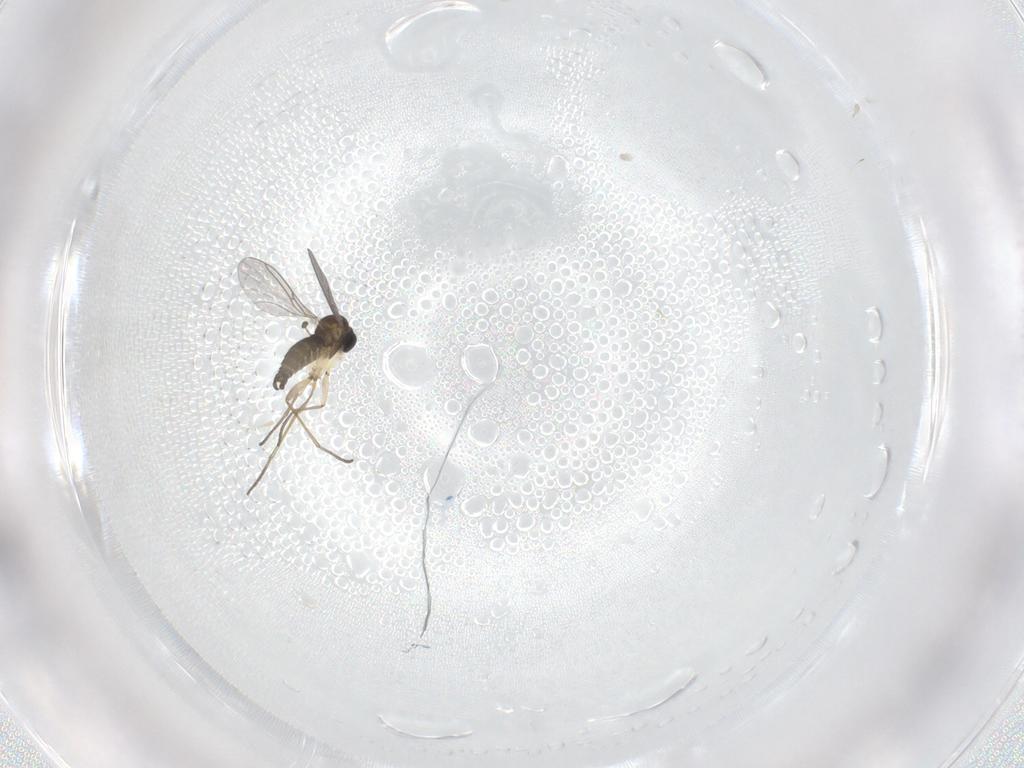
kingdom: Animalia
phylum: Arthropoda
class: Insecta
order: Diptera
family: Sciaridae
